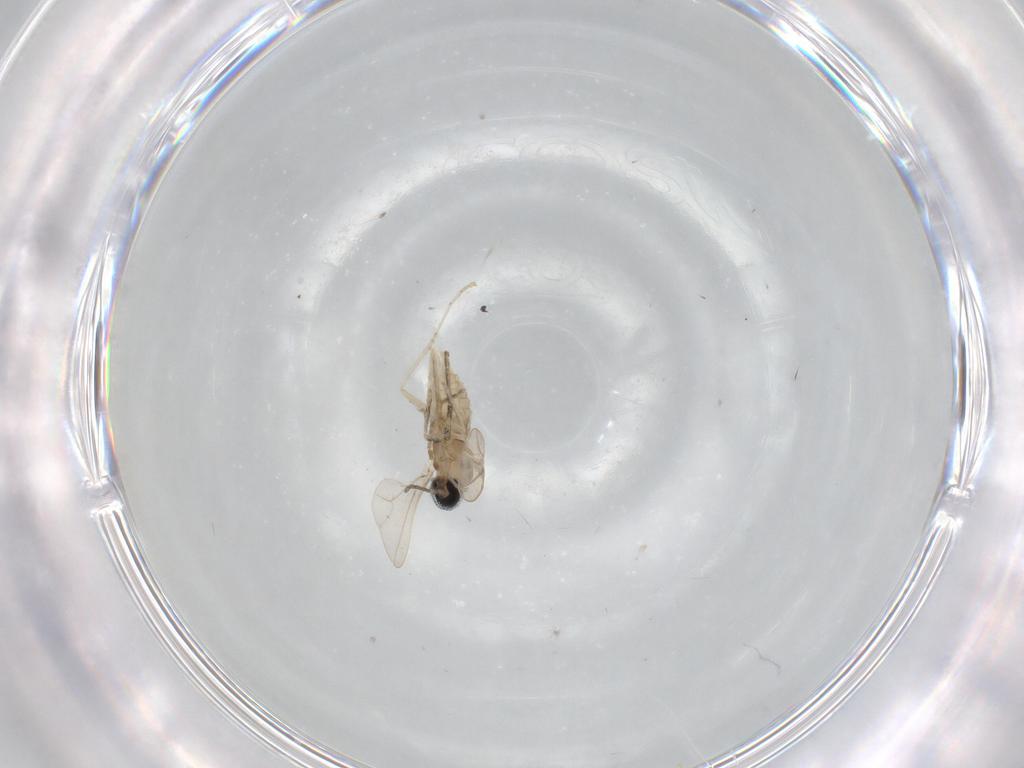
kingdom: Animalia
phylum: Arthropoda
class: Insecta
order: Diptera
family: Cecidomyiidae
